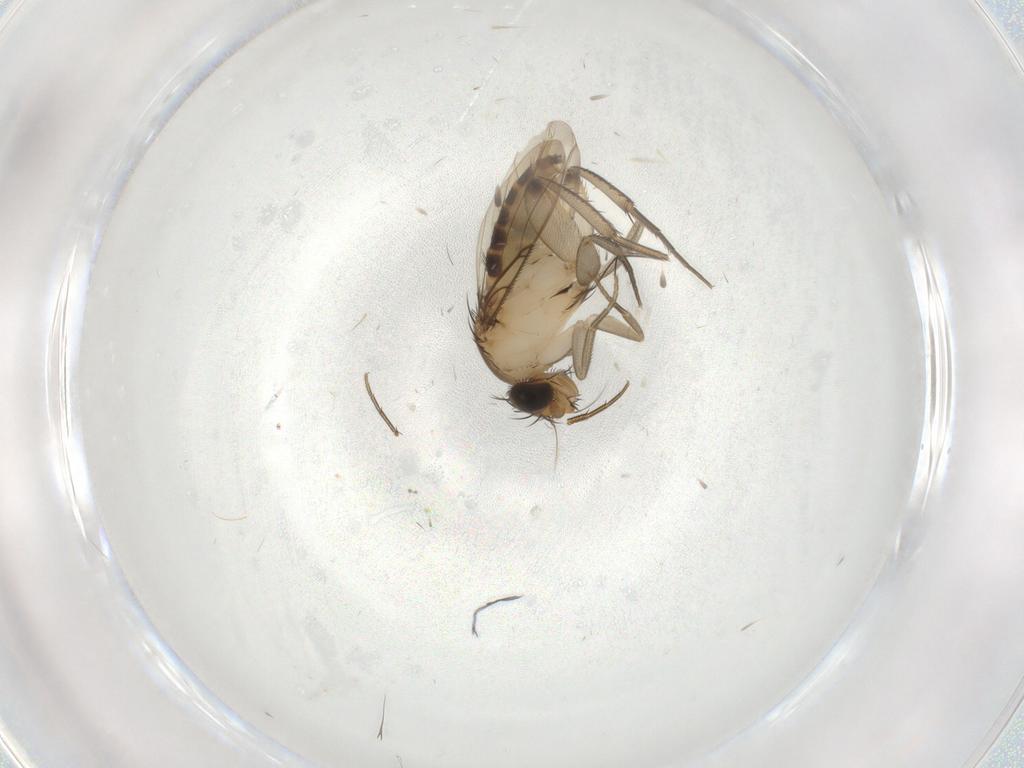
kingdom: Animalia
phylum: Arthropoda
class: Insecta
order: Diptera
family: Phoridae
